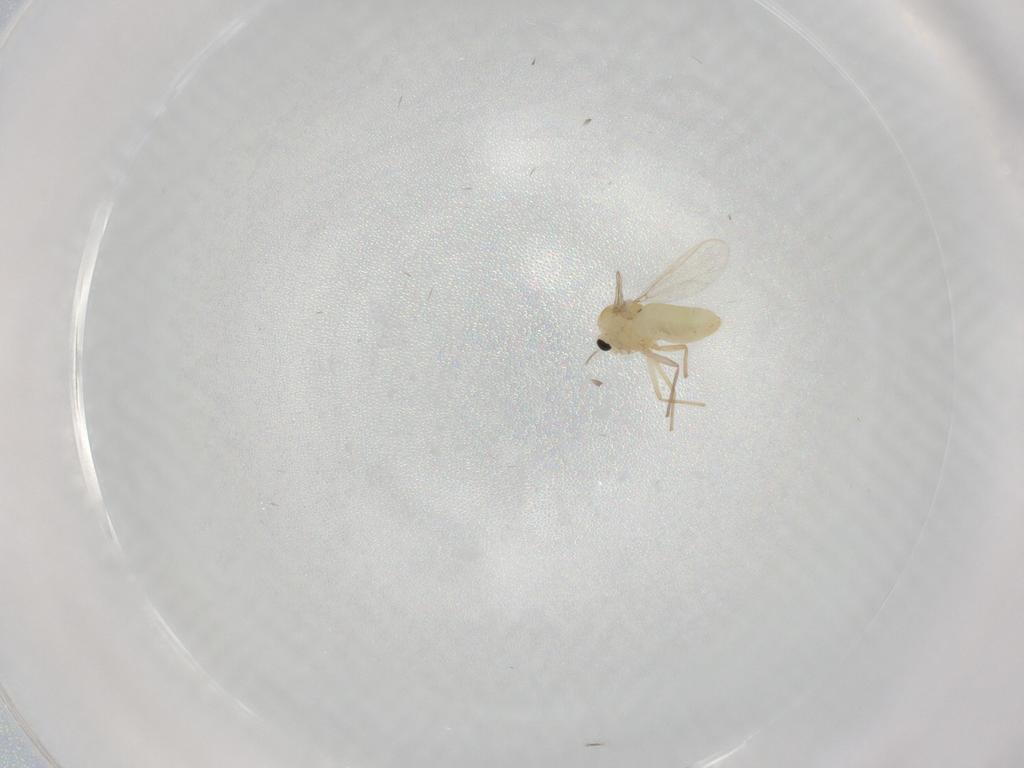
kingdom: Animalia
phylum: Arthropoda
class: Insecta
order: Diptera
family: Chironomidae
